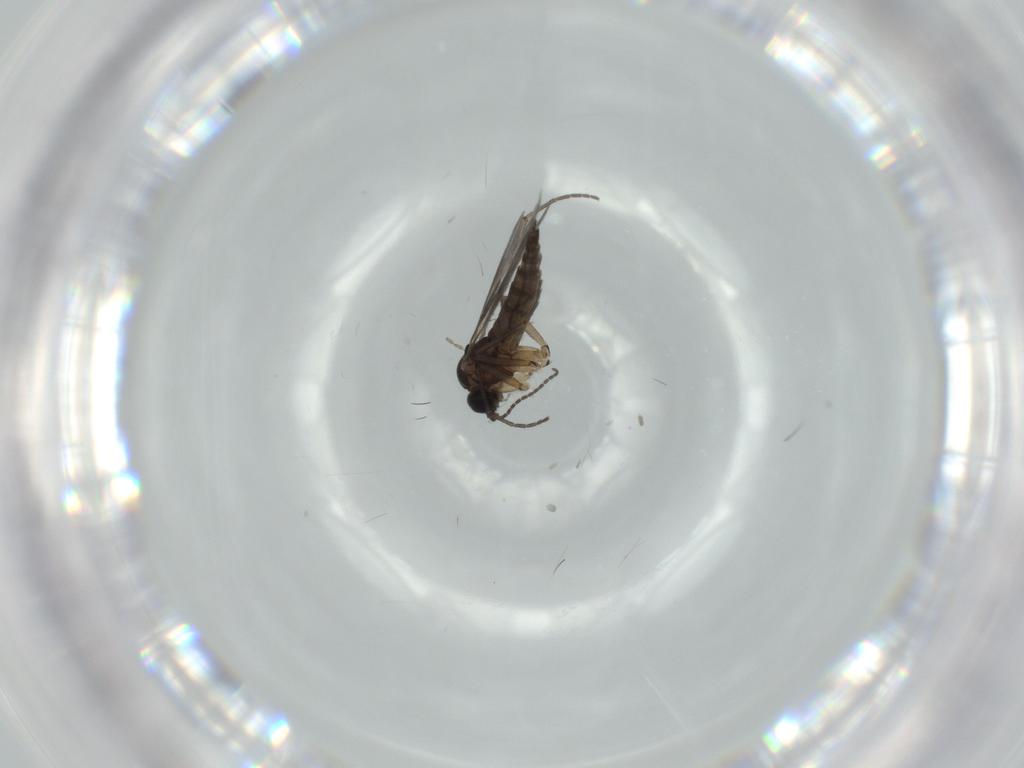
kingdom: Animalia
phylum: Arthropoda
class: Insecta
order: Diptera
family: Sciaridae
